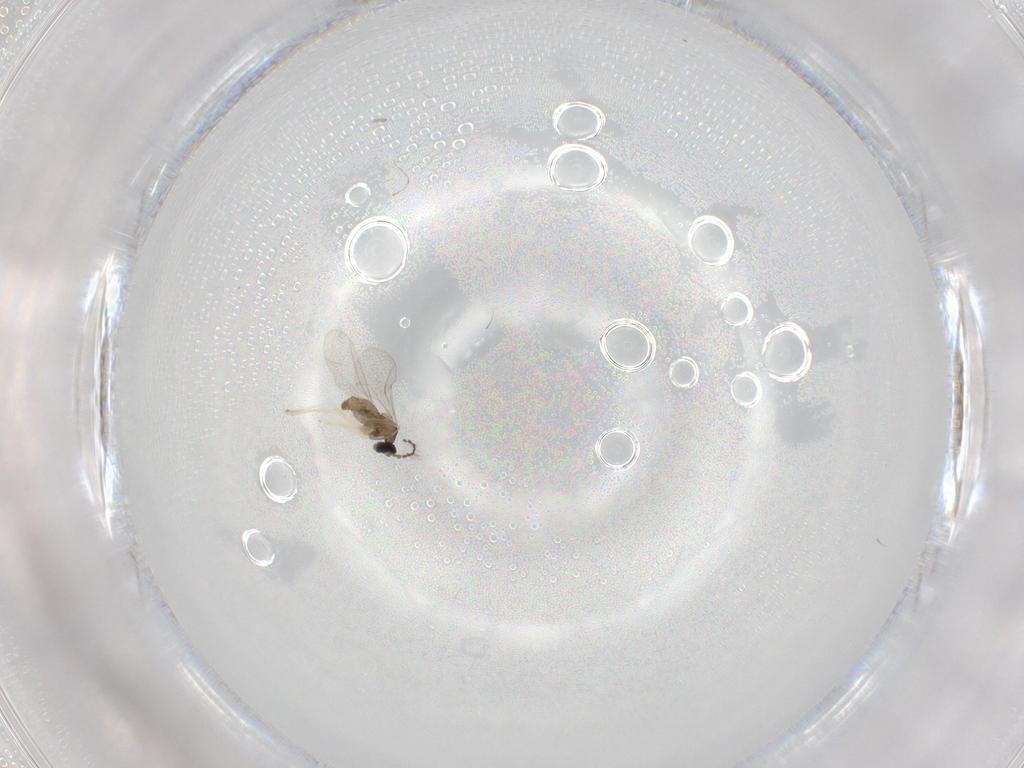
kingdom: Animalia
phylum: Arthropoda
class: Insecta
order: Diptera
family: Cecidomyiidae
